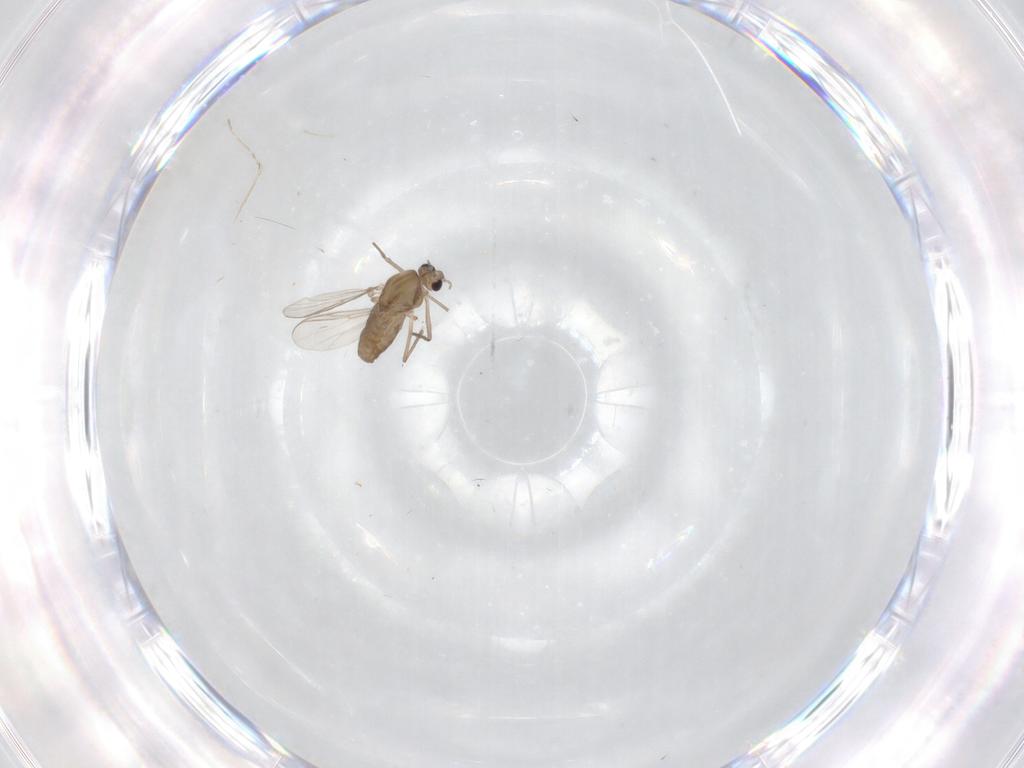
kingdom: Animalia
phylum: Arthropoda
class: Insecta
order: Diptera
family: Chironomidae
